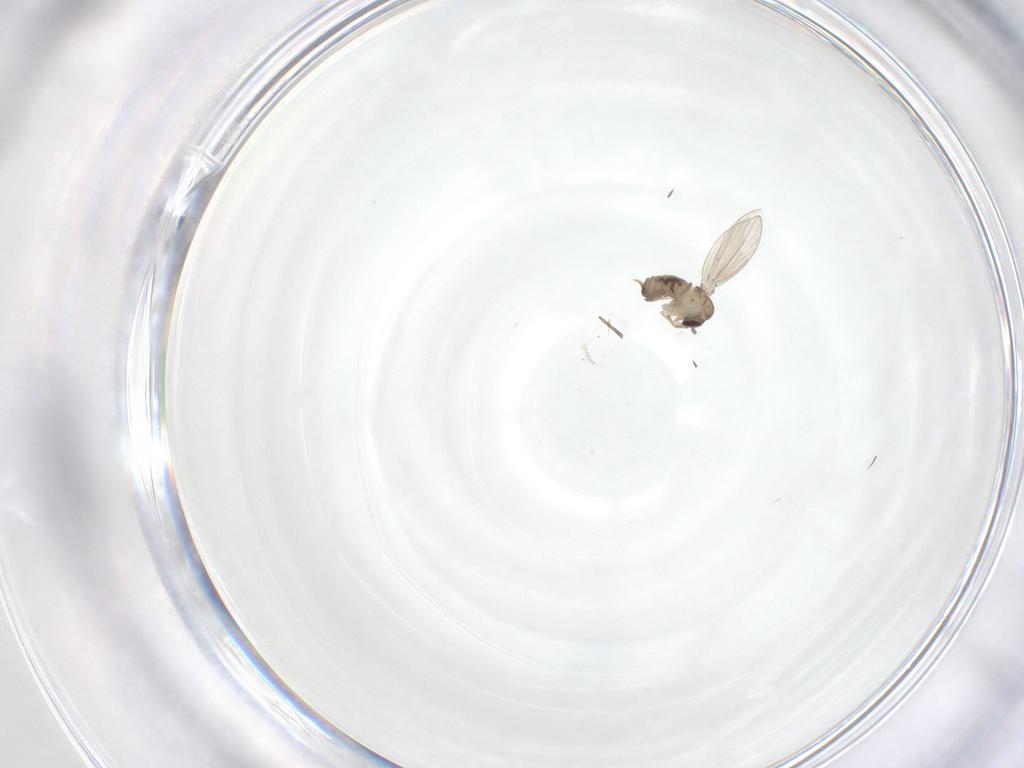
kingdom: Animalia
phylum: Arthropoda
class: Insecta
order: Diptera
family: Psychodidae
